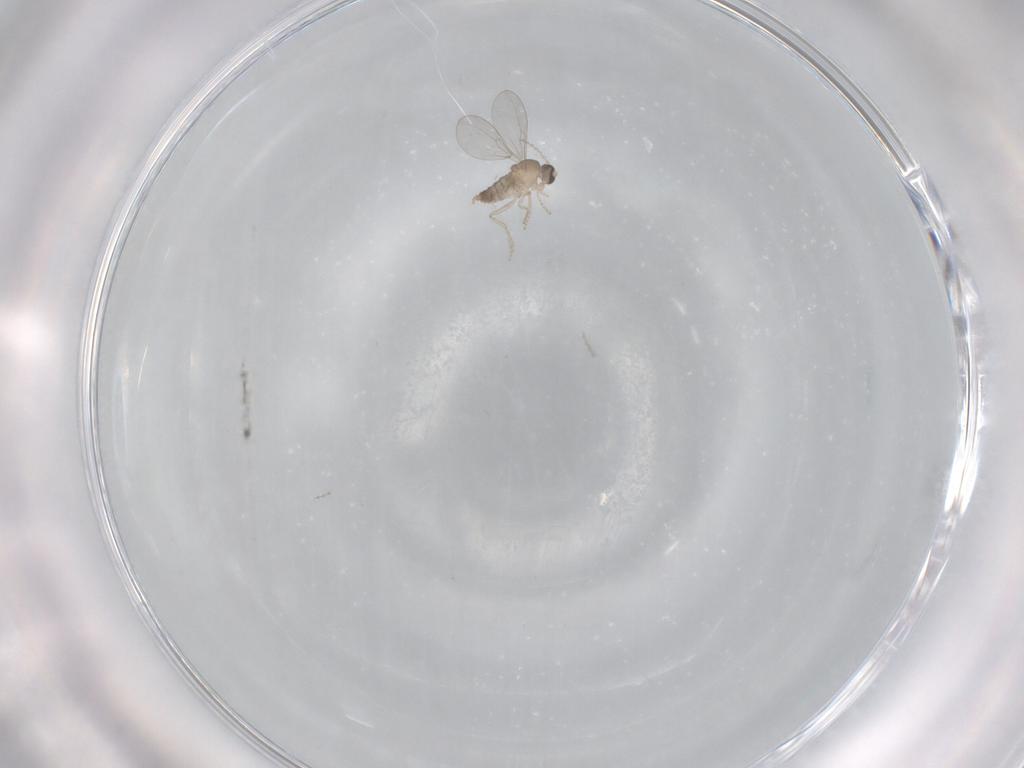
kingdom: Animalia
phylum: Arthropoda
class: Insecta
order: Diptera
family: Cecidomyiidae
